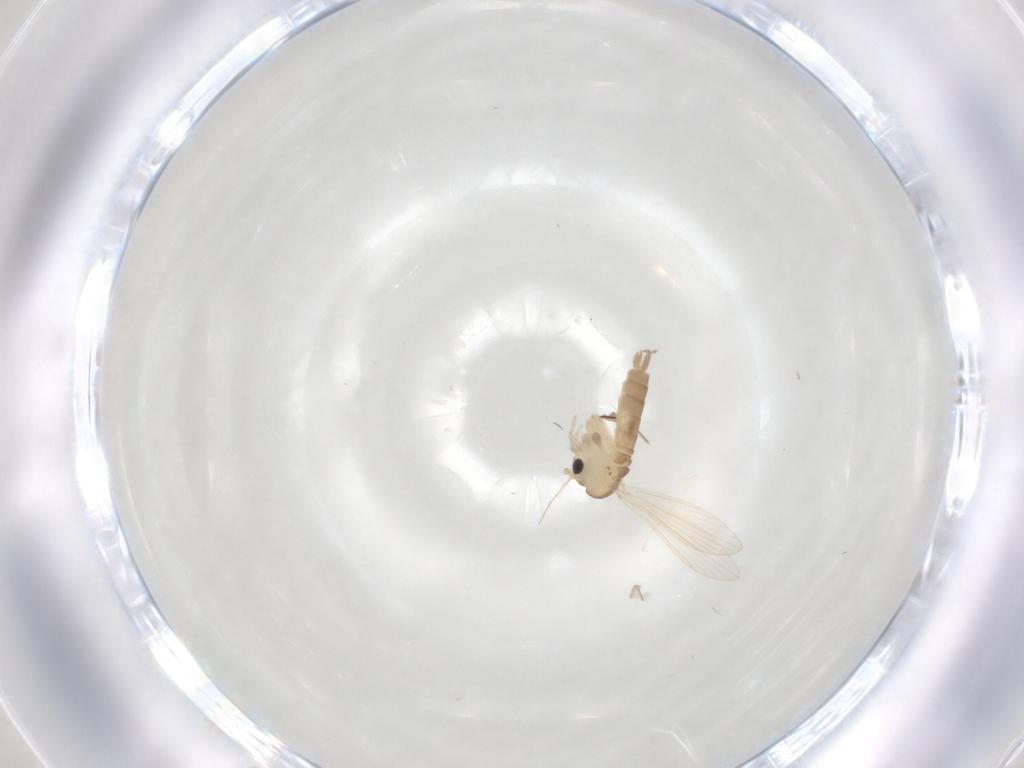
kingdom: Animalia
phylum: Arthropoda
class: Insecta
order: Diptera
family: Psychodidae
